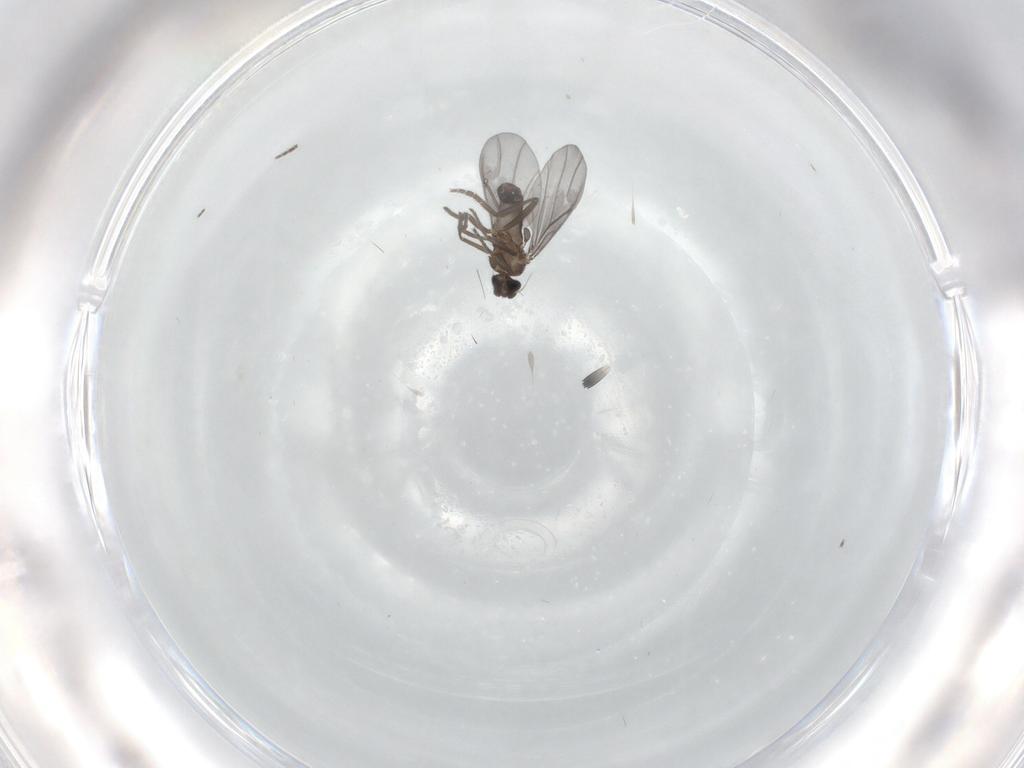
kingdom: Animalia
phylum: Arthropoda
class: Insecta
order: Diptera
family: Phoridae
